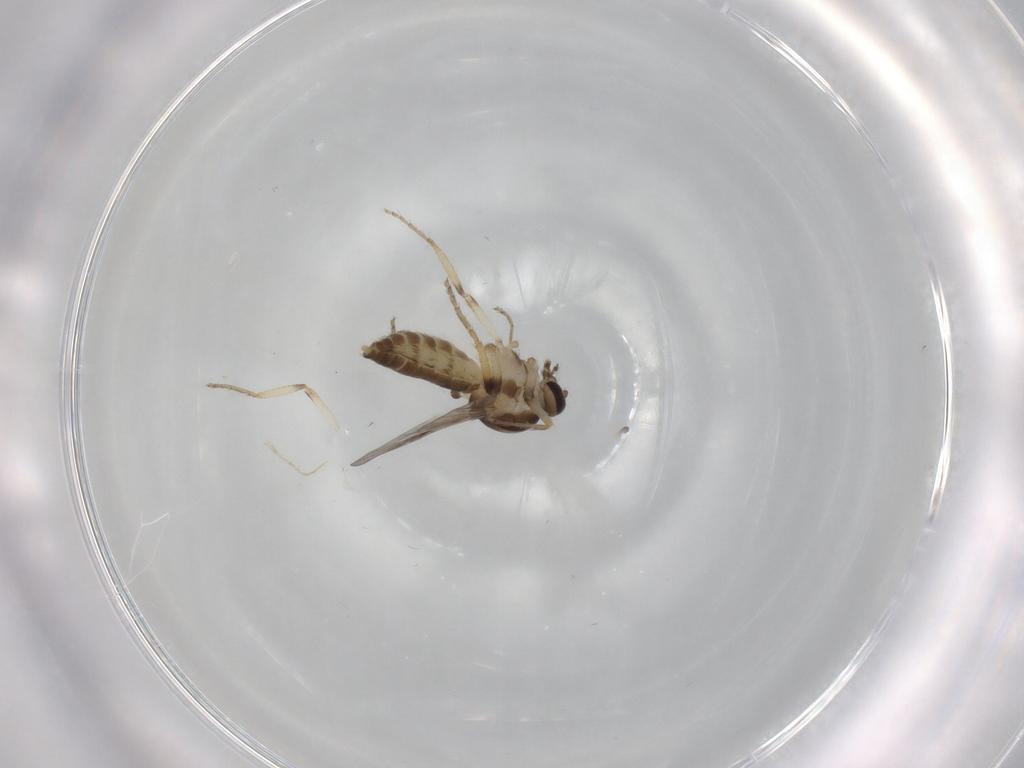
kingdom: Animalia
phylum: Arthropoda
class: Insecta
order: Diptera
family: Ceratopogonidae
